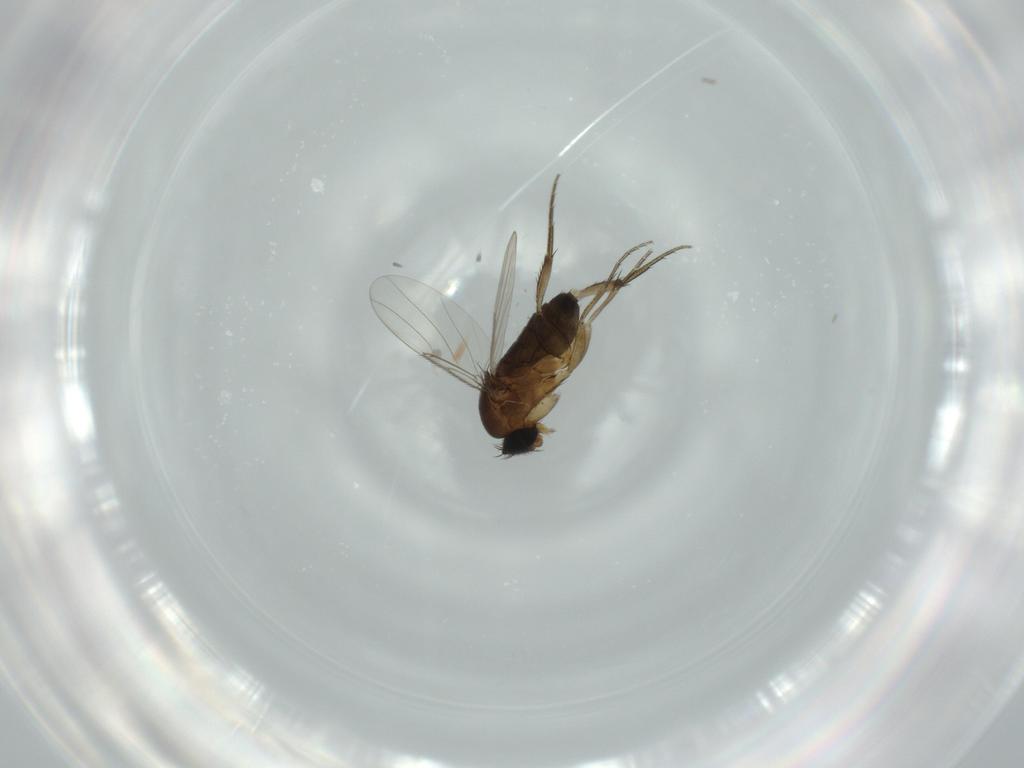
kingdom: Animalia
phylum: Arthropoda
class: Insecta
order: Diptera
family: Phoridae
